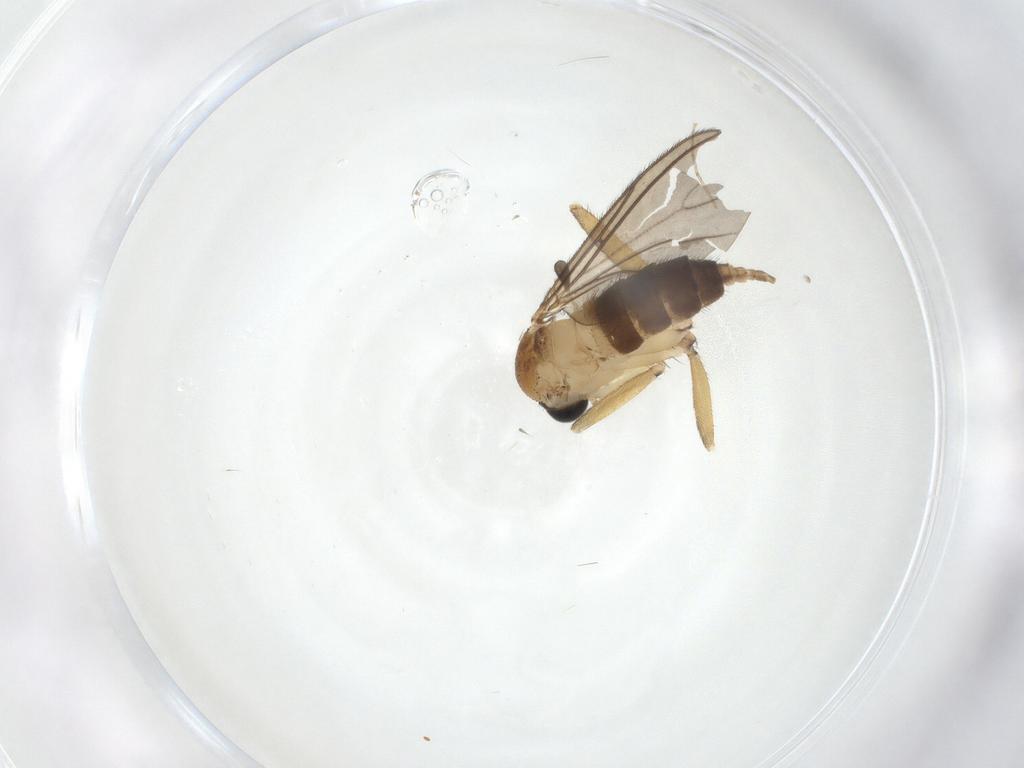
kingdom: Animalia
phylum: Arthropoda
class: Insecta
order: Diptera
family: Sciaridae
